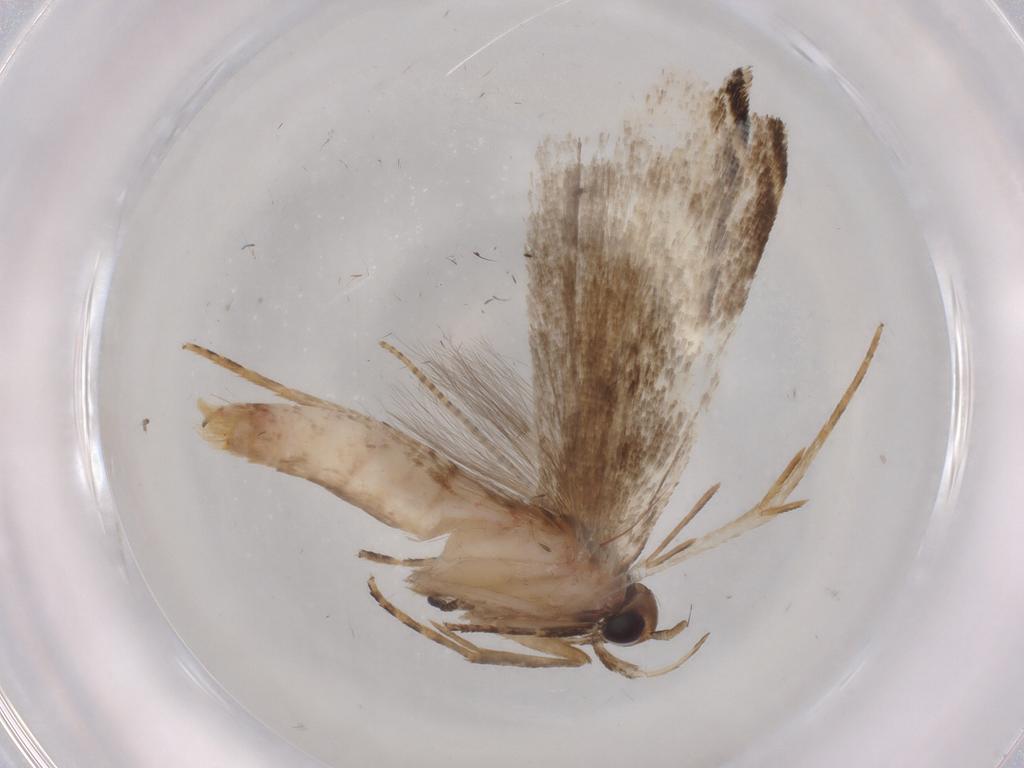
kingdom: Animalia
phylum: Arthropoda
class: Insecta
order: Lepidoptera
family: Gelechiidae
